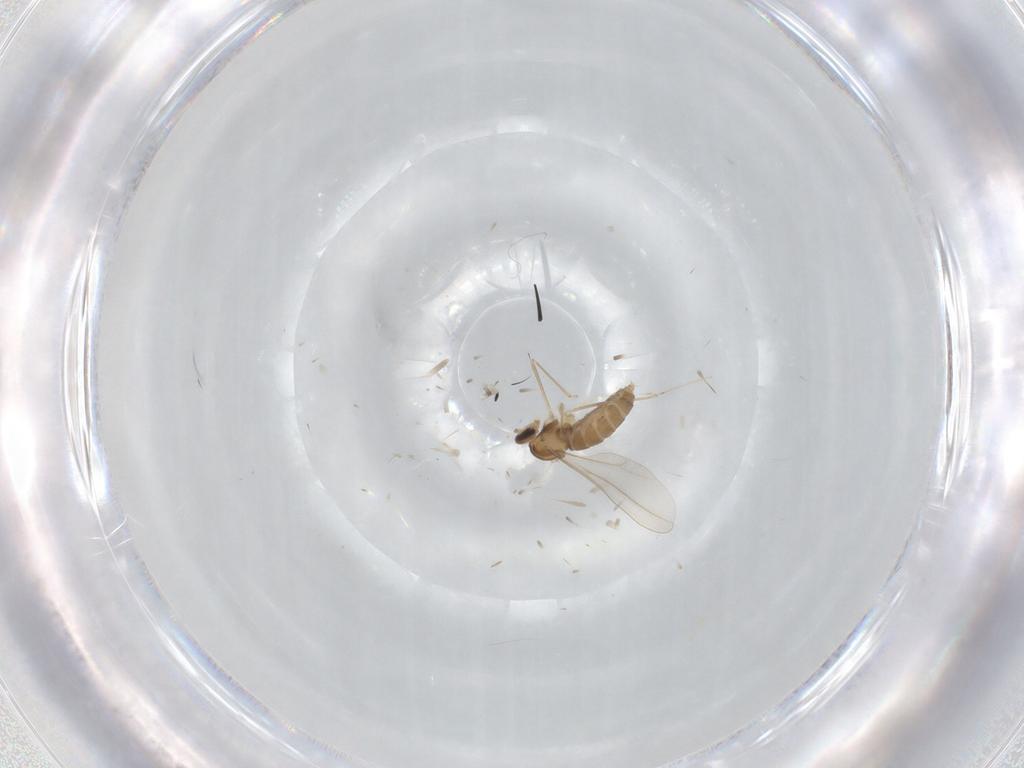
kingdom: Animalia
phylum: Arthropoda
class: Insecta
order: Diptera
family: Cecidomyiidae
